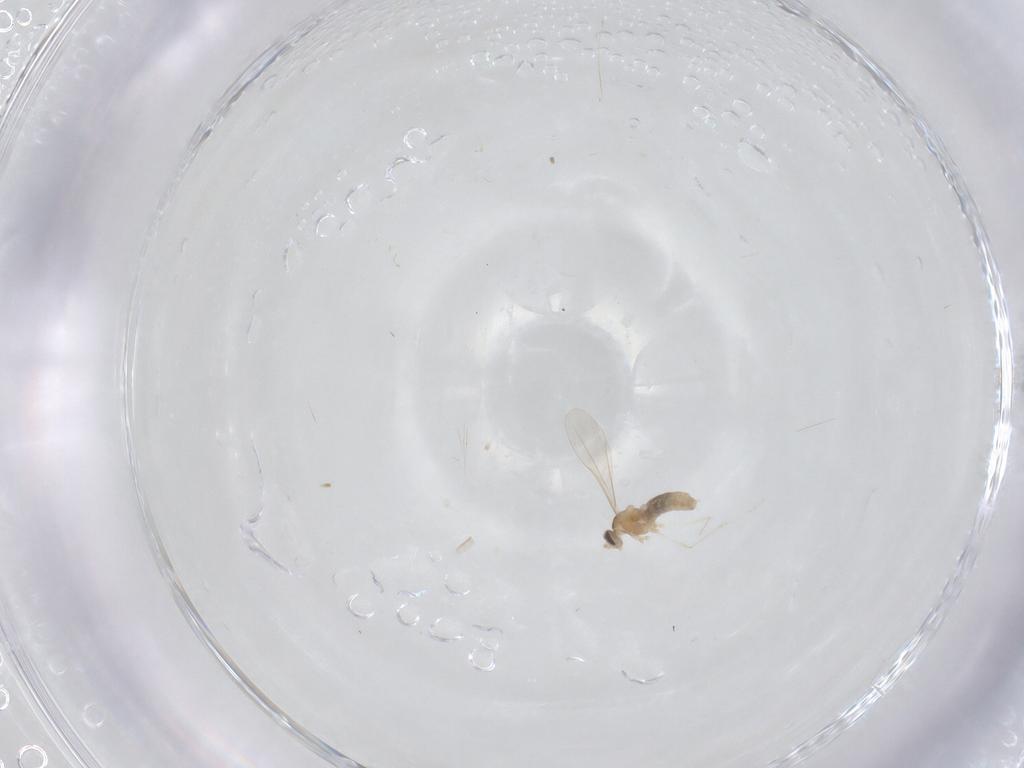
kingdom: Animalia
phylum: Arthropoda
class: Insecta
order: Diptera
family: Cecidomyiidae
